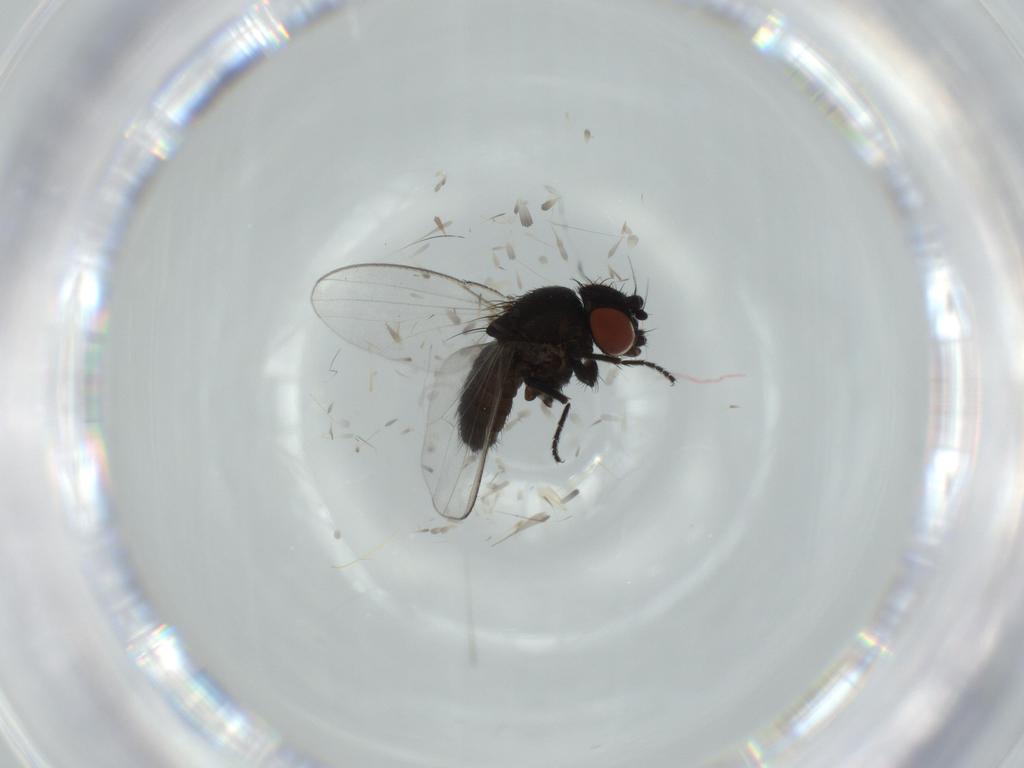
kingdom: Animalia
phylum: Arthropoda
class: Insecta
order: Diptera
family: Milichiidae
